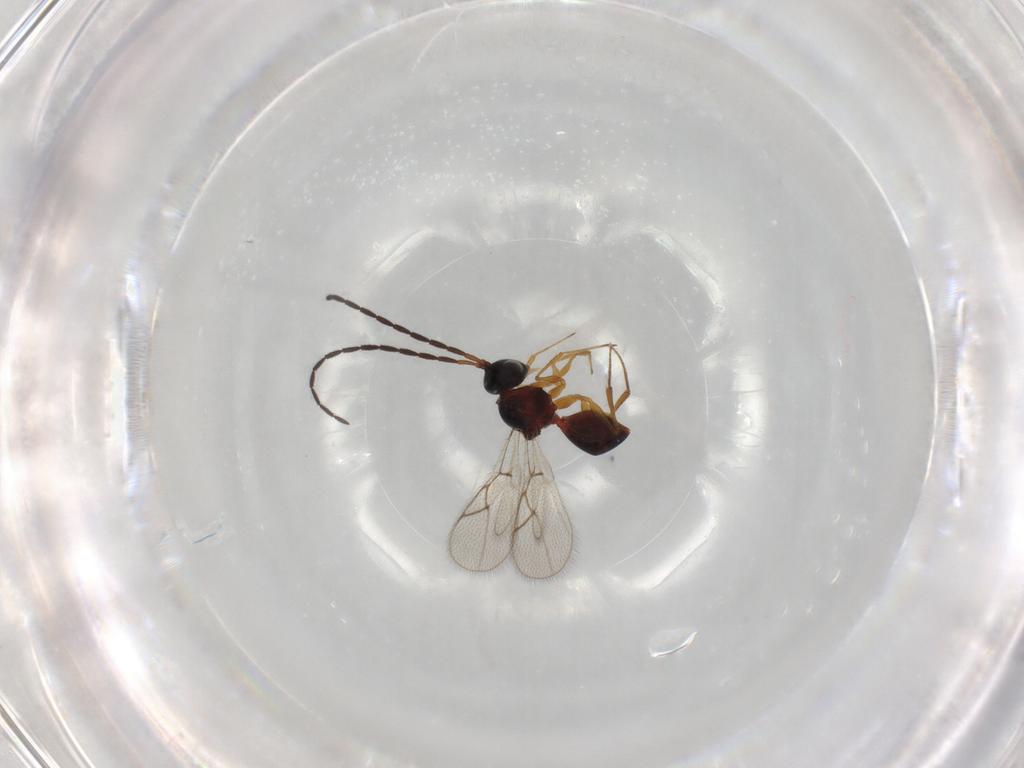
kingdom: Animalia
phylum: Arthropoda
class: Insecta
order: Hymenoptera
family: Figitidae
